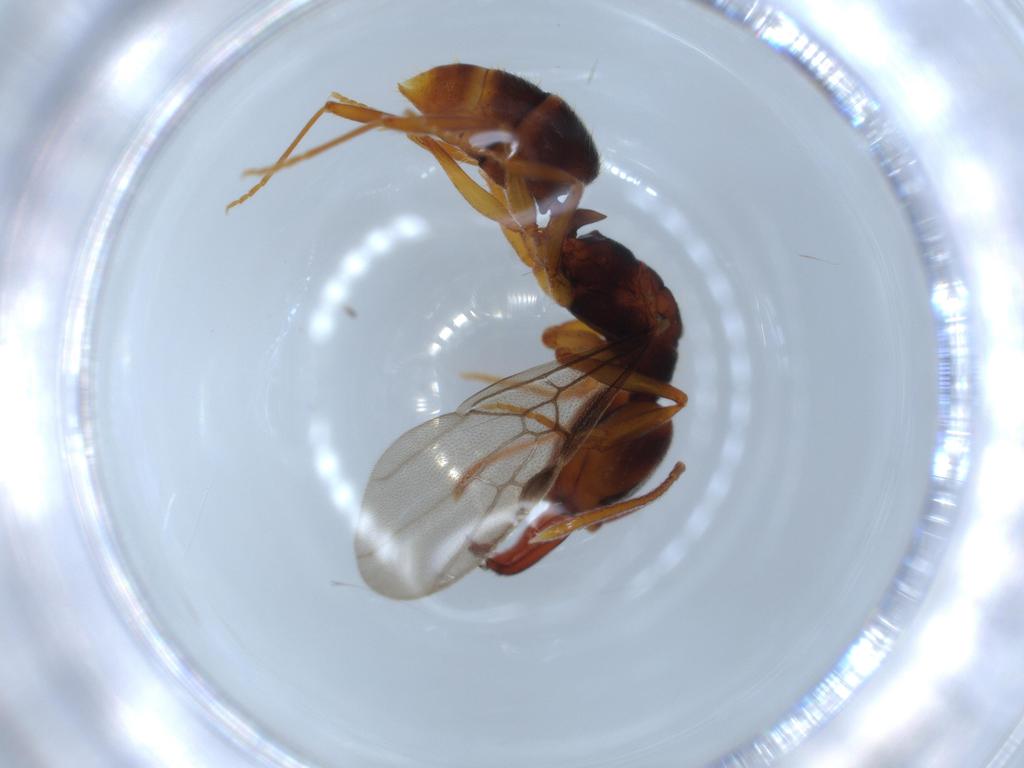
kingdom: Animalia
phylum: Arthropoda
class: Insecta
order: Hymenoptera
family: Formicidae
